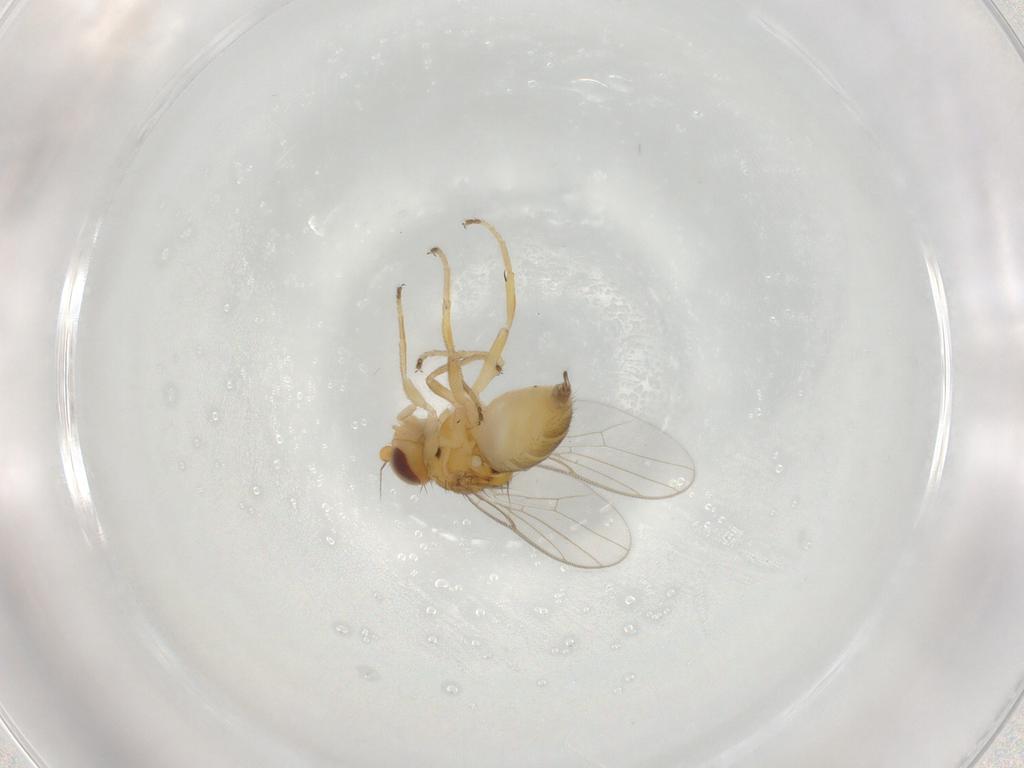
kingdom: Animalia
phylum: Arthropoda
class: Insecta
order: Diptera
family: Chloropidae
